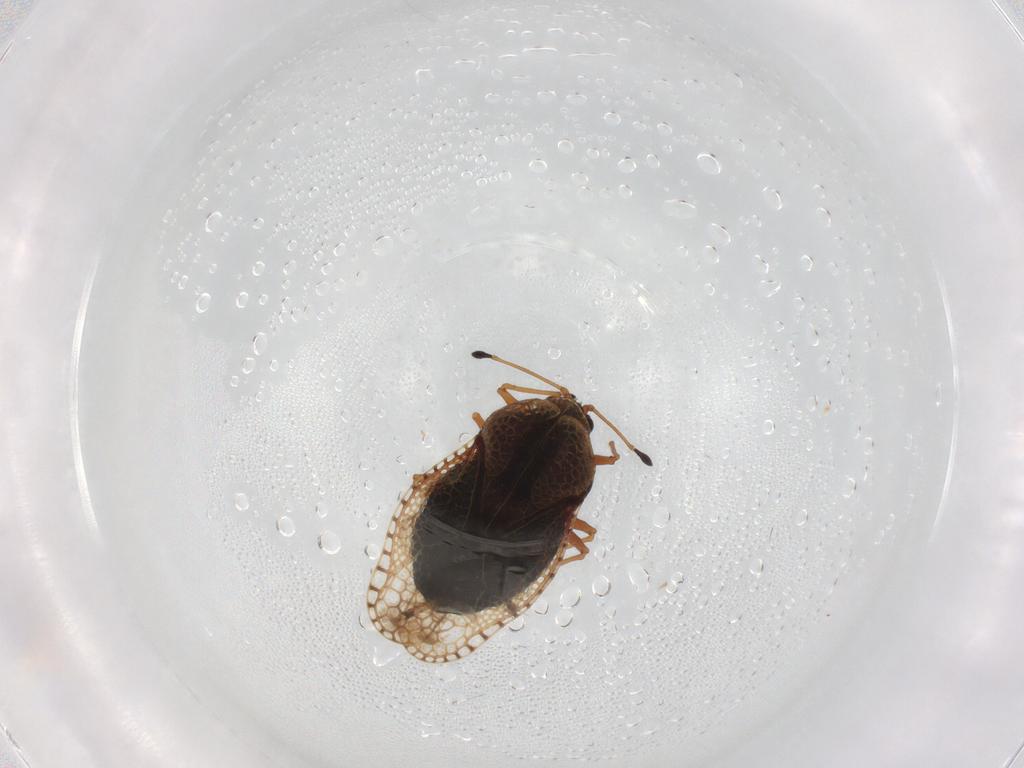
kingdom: Animalia
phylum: Arthropoda
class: Insecta
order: Hemiptera
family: Tingidae
